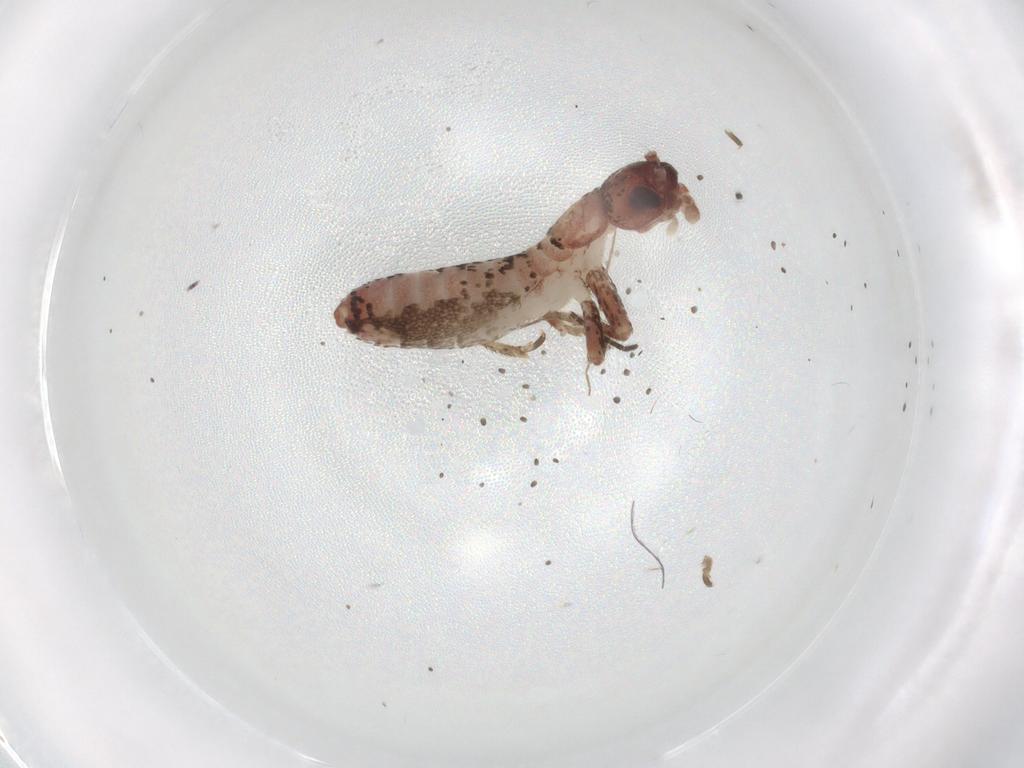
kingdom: Animalia
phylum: Arthropoda
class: Insecta
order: Orthoptera
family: Mogoplistidae
